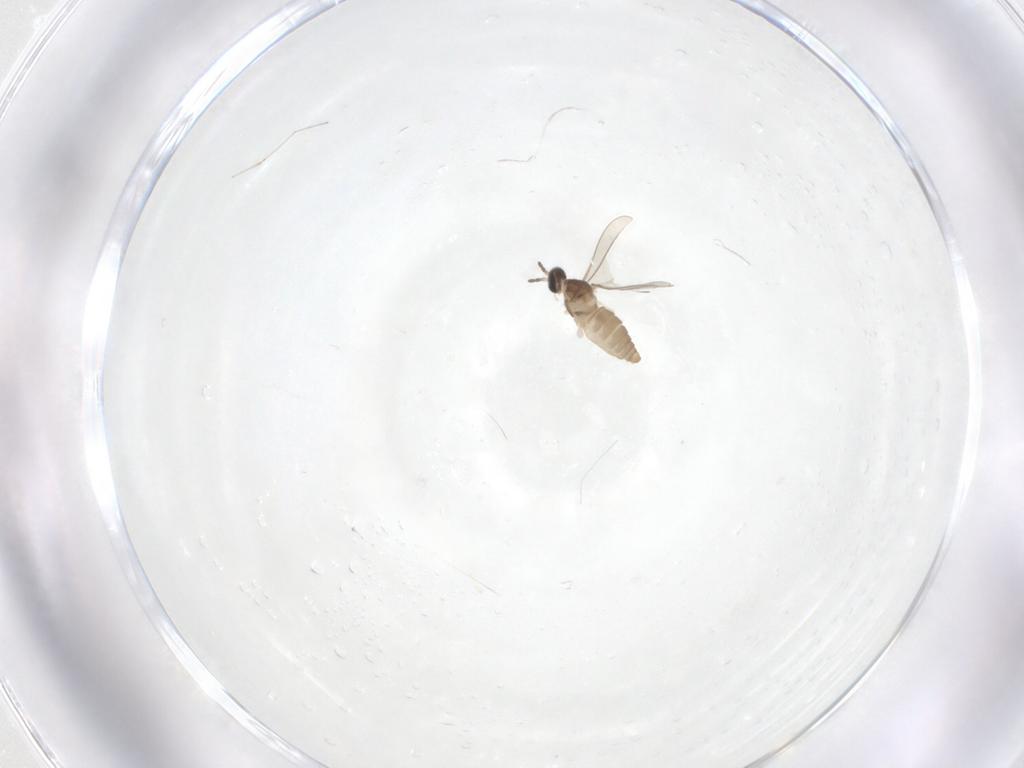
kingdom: Animalia
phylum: Arthropoda
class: Insecta
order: Diptera
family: Cecidomyiidae
